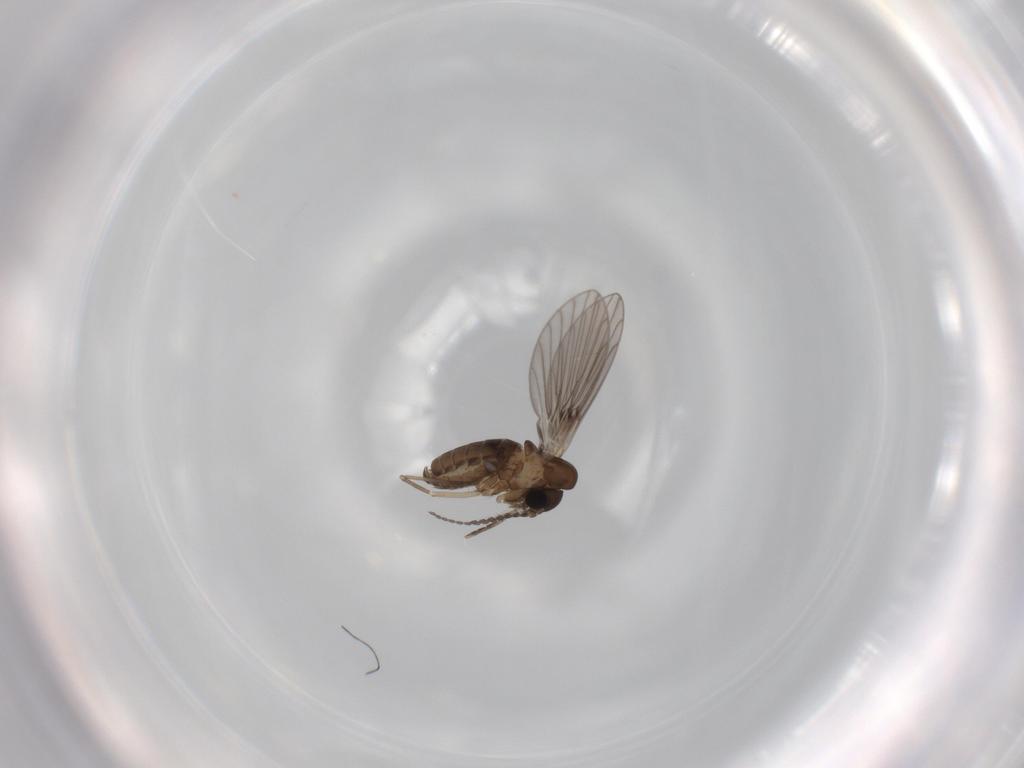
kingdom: Animalia
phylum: Arthropoda
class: Insecta
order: Diptera
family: Psychodidae
